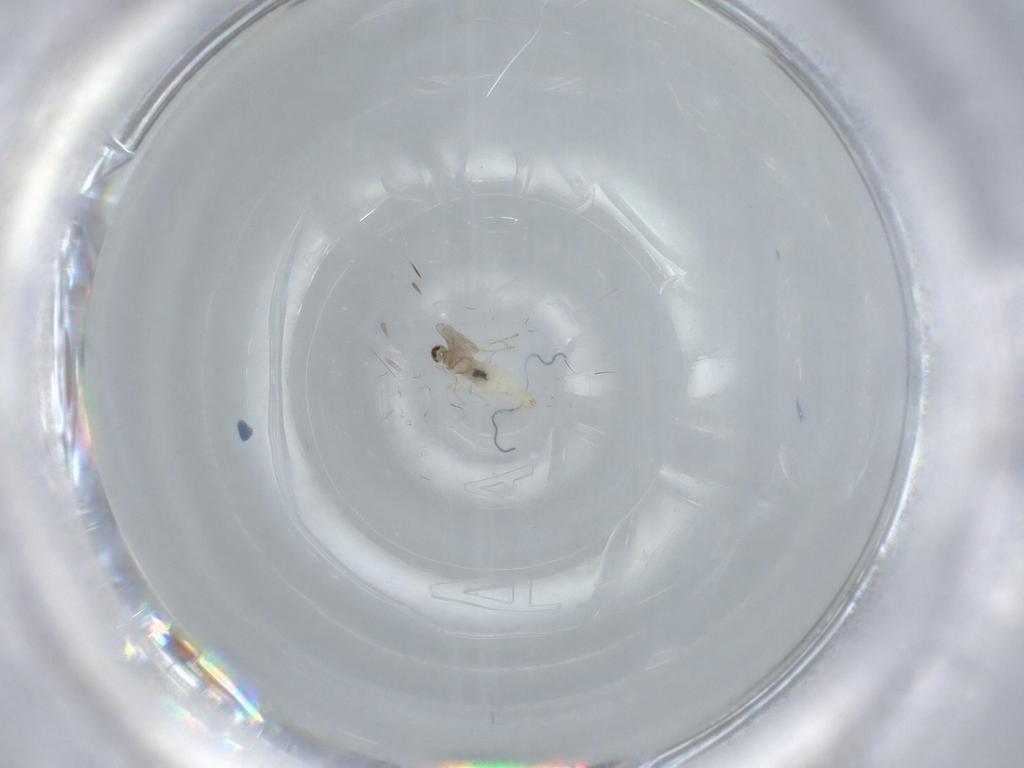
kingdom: Animalia
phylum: Arthropoda
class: Insecta
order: Diptera
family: Cecidomyiidae
